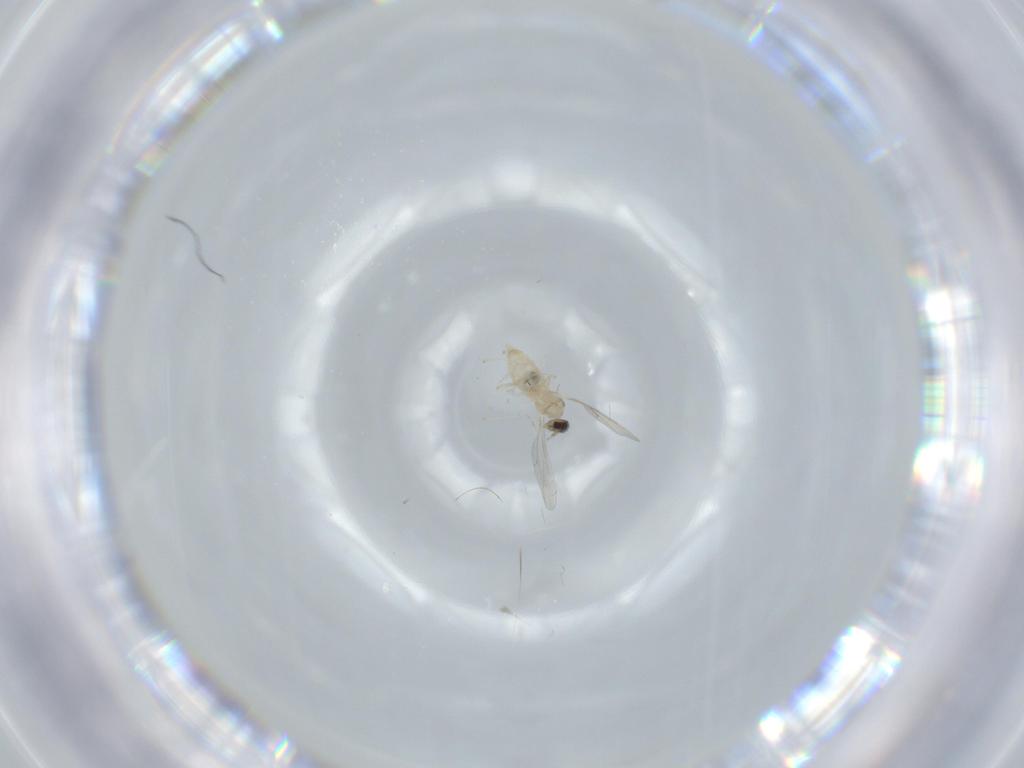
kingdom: Animalia
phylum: Arthropoda
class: Insecta
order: Diptera
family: Cecidomyiidae
